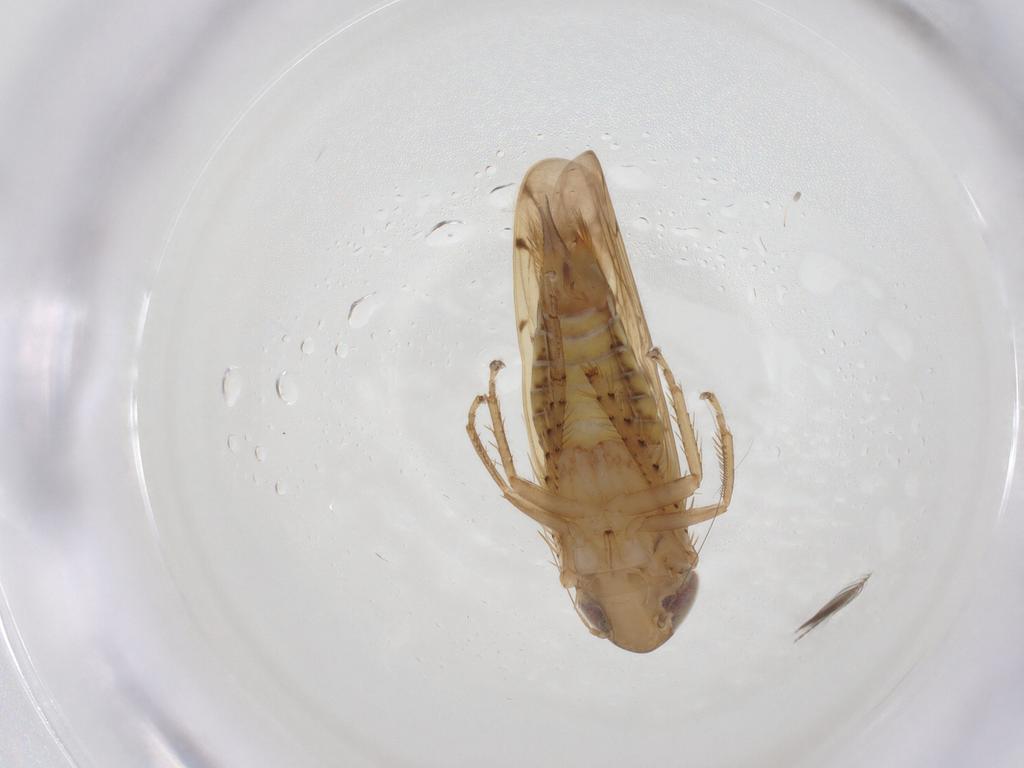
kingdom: Animalia
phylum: Arthropoda
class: Insecta
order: Hemiptera
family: Cicadellidae
